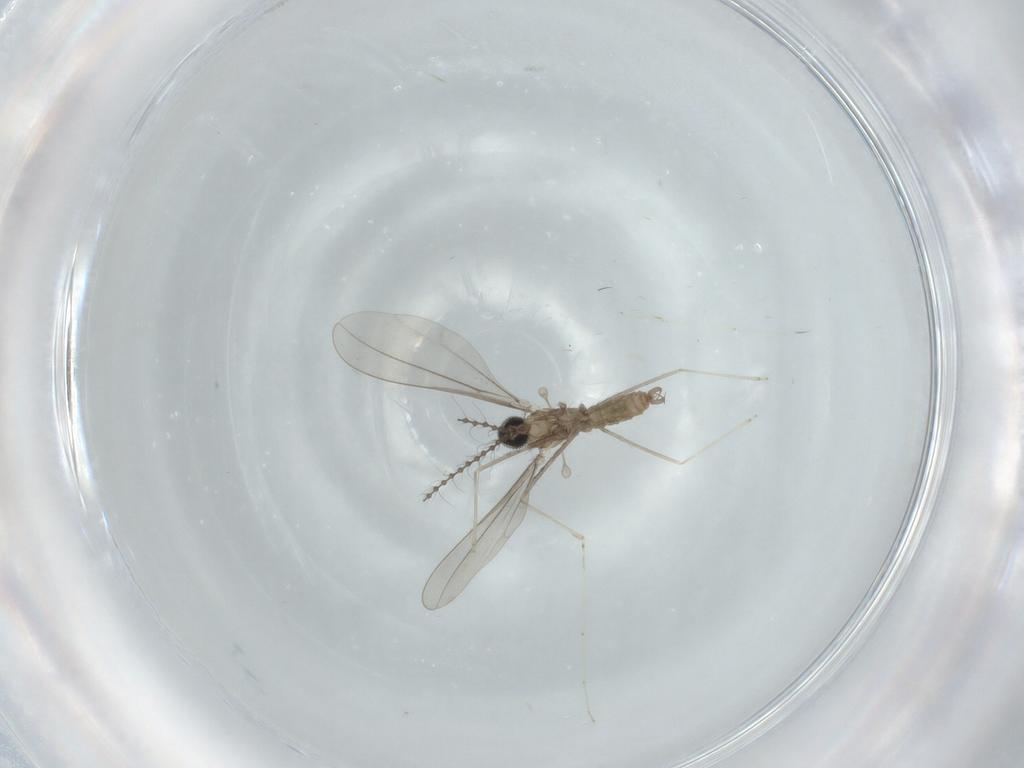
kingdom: Animalia
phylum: Arthropoda
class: Insecta
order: Diptera
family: Cecidomyiidae
